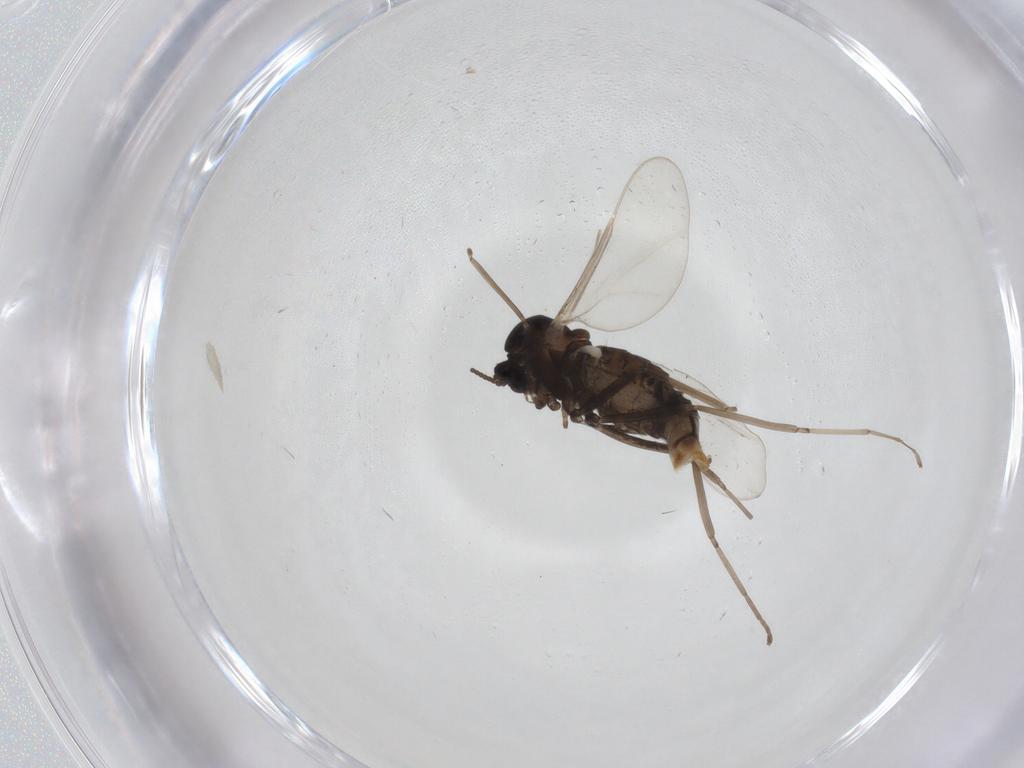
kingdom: Animalia
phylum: Arthropoda
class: Insecta
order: Diptera
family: Cecidomyiidae
